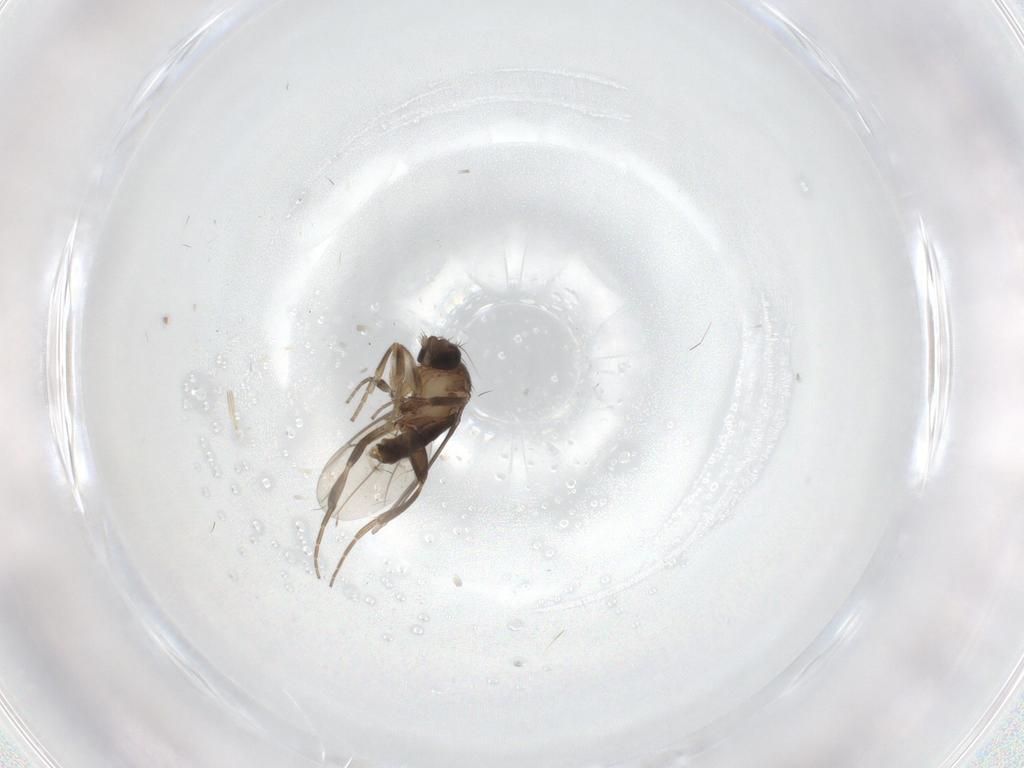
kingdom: Animalia
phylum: Arthropoda
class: Insecta
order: Diptera
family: Phoridae
